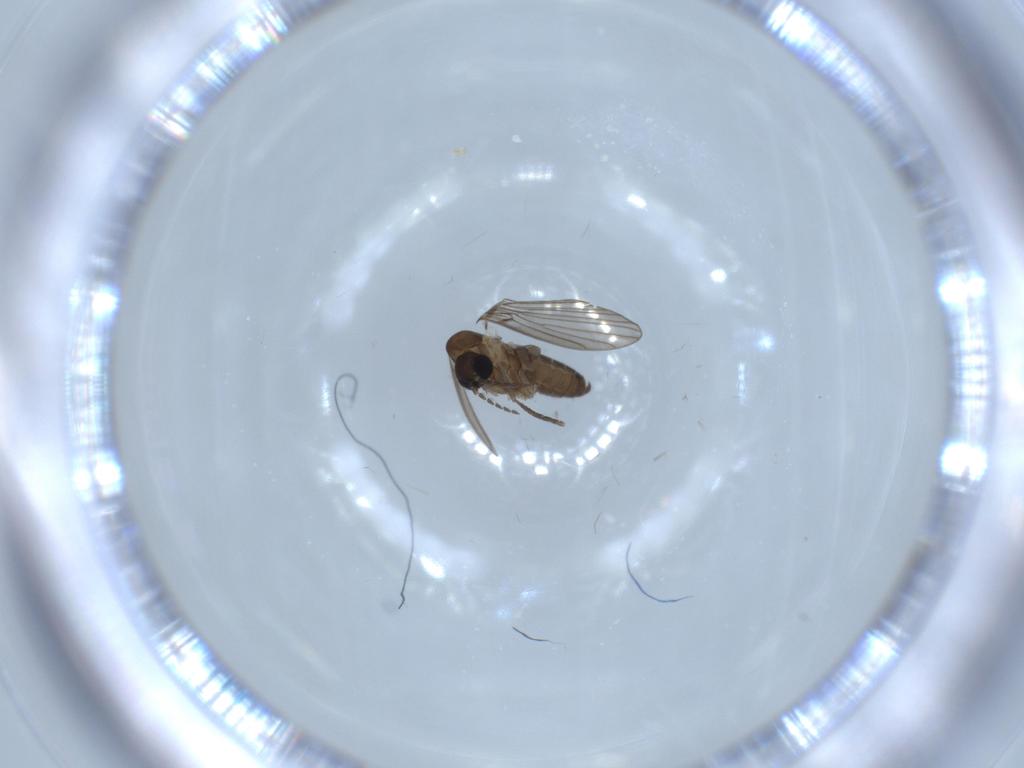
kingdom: Animalia
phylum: Arthropoda
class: Insecta
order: Diptera
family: Psychodidae
